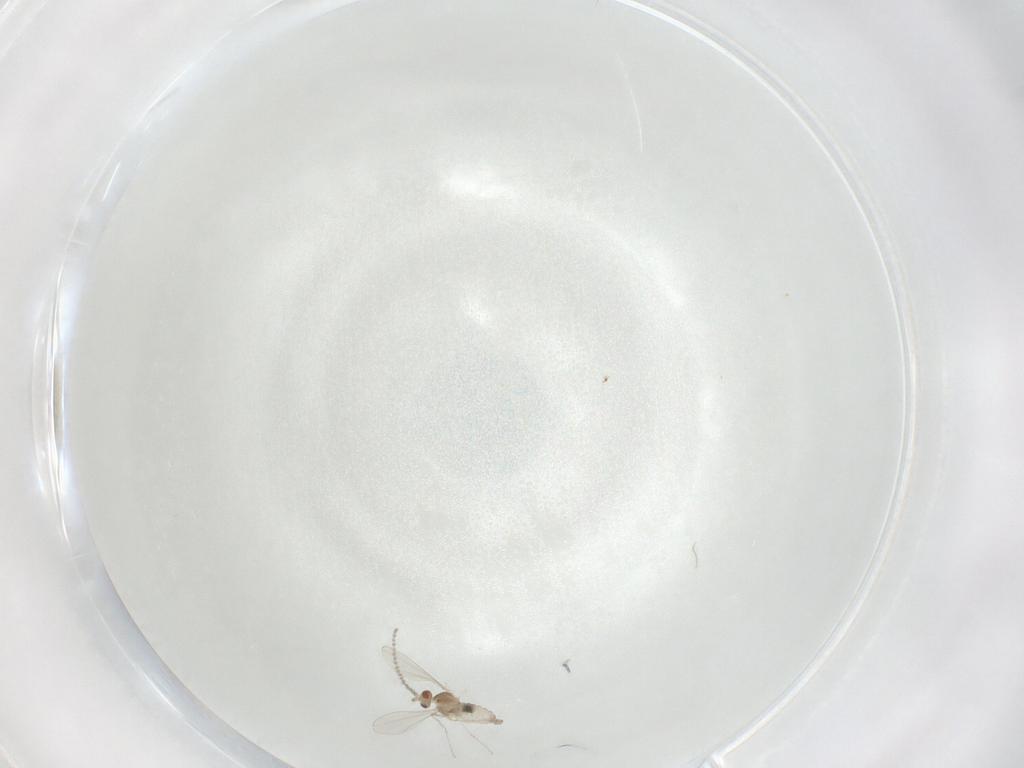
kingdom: Animalia
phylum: Arthropoda
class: Insecta
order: Diptera
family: Cecidomyiidae
